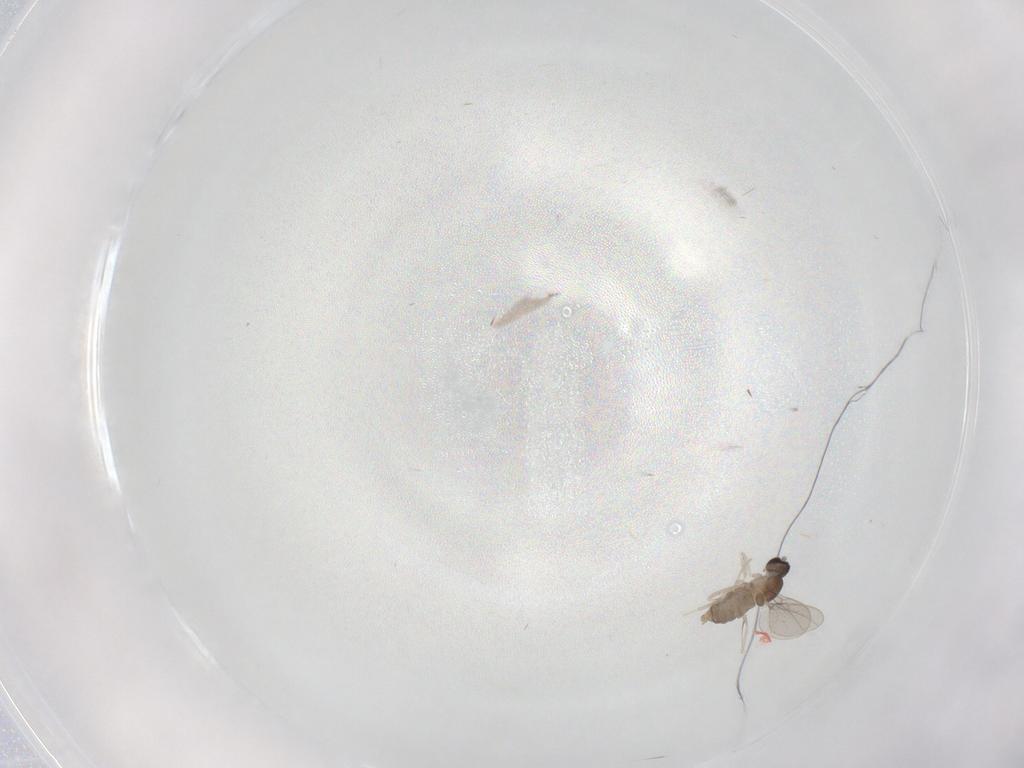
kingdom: Animalia
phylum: Arthropoda
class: Insecta
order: Diptera
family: Cecidomyiidae
